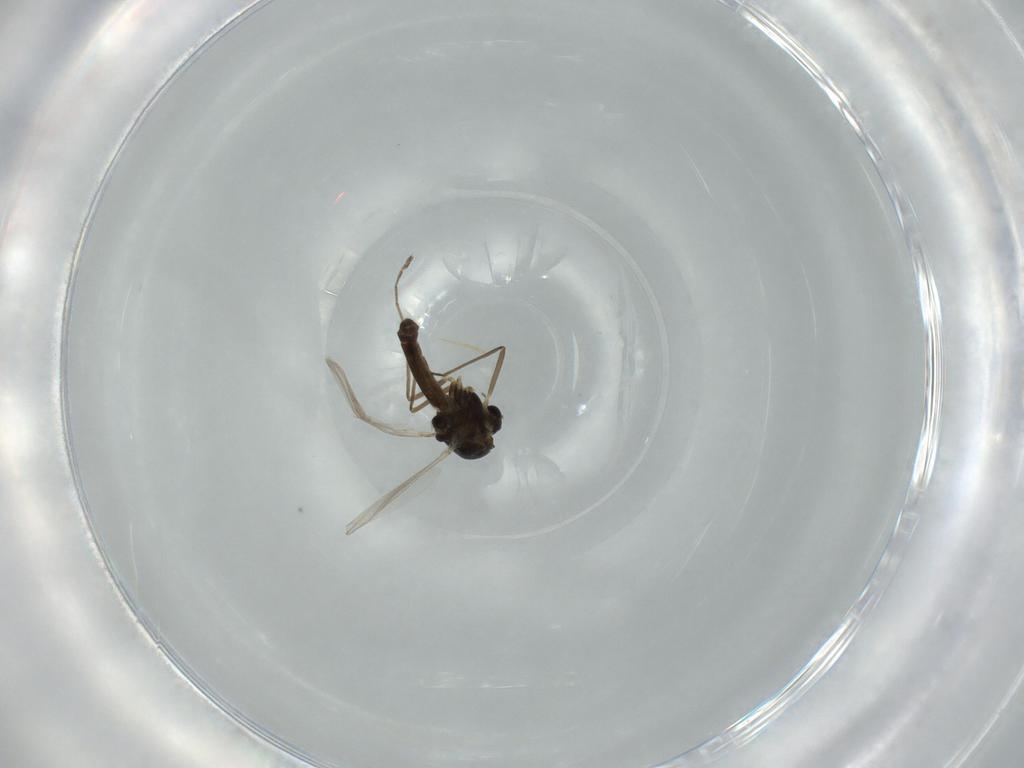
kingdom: Animalia
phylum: Arthropoda
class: Insecta
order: Diptera
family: Chironomidae
